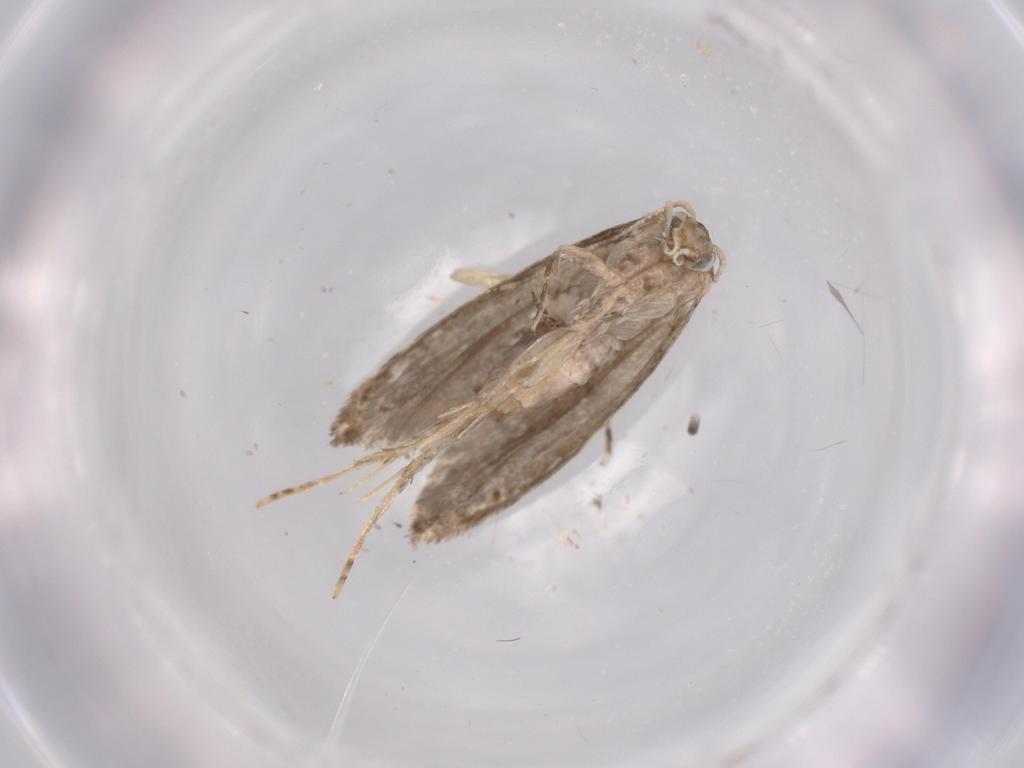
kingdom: Animalia
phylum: Arthropoda
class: Insecta
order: Lepidoptera
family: Tineidae
